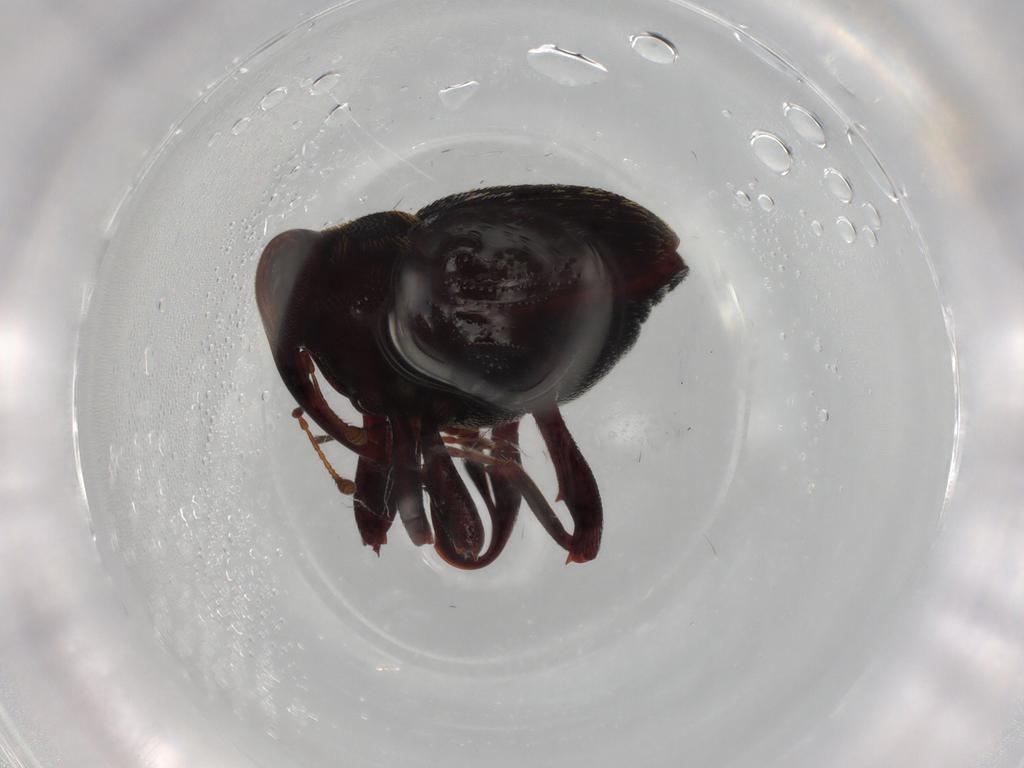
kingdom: Animalia
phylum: Arthropoda
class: Insecta
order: Coleoptera
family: Curculionidae
